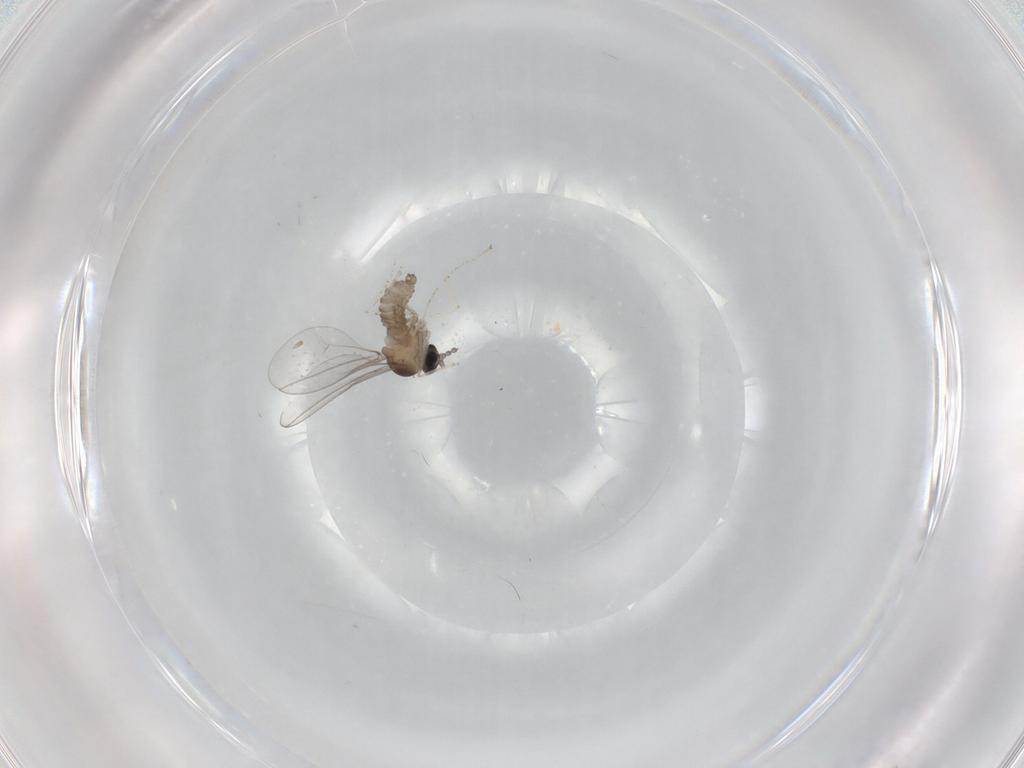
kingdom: Animalia
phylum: Arthropoda
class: Insecta
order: Diptera
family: Cecidomyiidae
